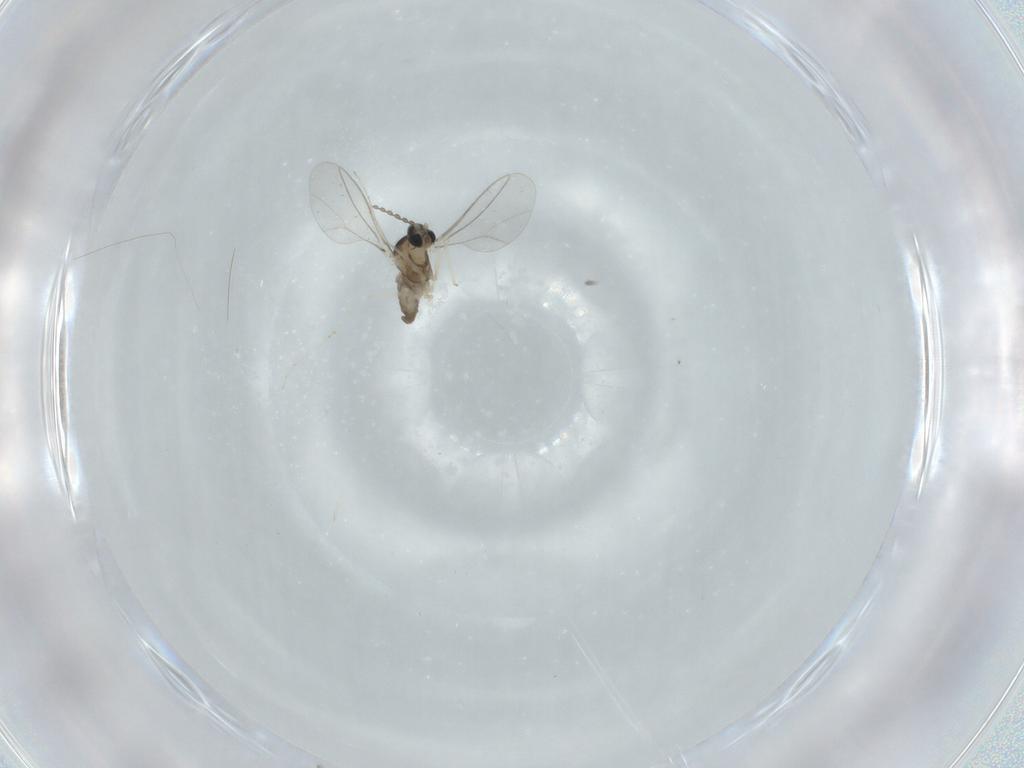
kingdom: Animalia
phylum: Arthropoda
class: Insecta
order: Diptera
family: Cecidomyiidae
